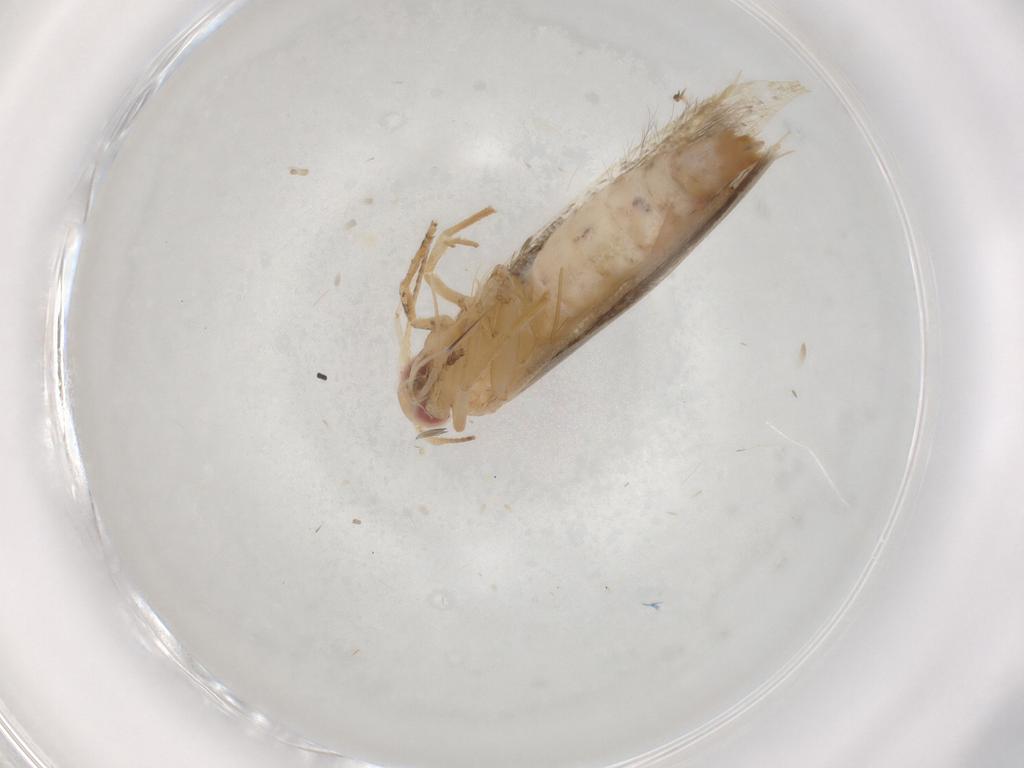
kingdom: Animalia
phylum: Arthropoda
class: Insecta
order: Lepidoptera
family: Cosmopterigidae
